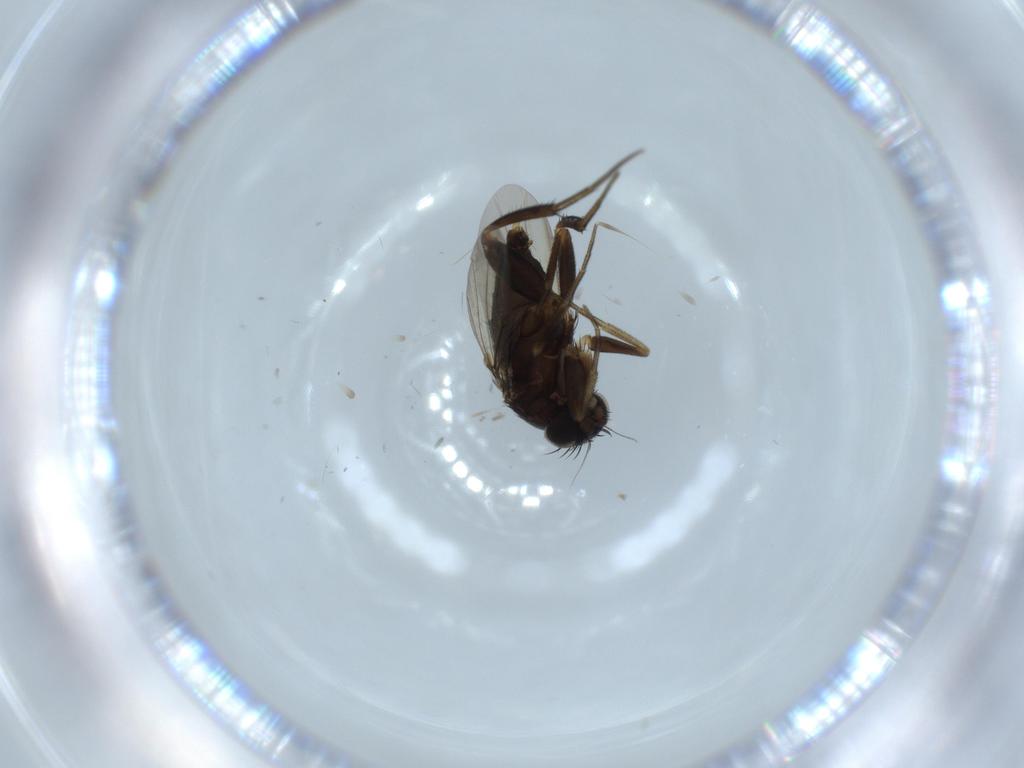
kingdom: Animalia
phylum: Arthropoda
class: Insecta
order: Diptera
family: Phoridae
